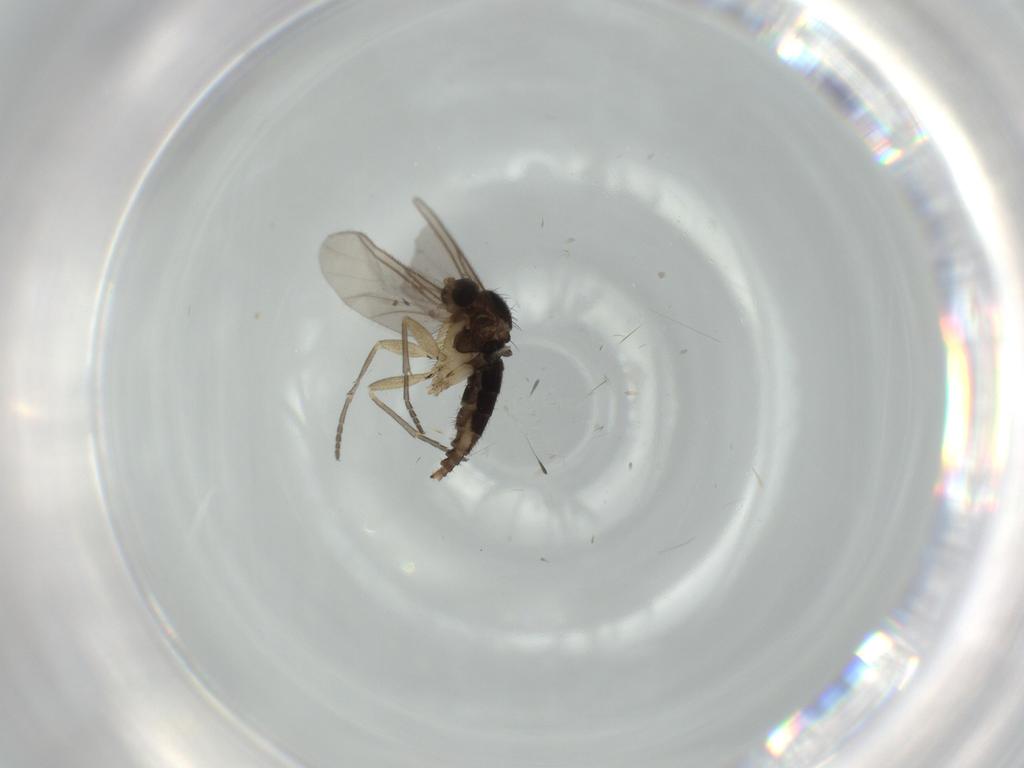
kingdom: Animalia
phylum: Arthropoda
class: Insecta
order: Diptera
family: Sciaridae
